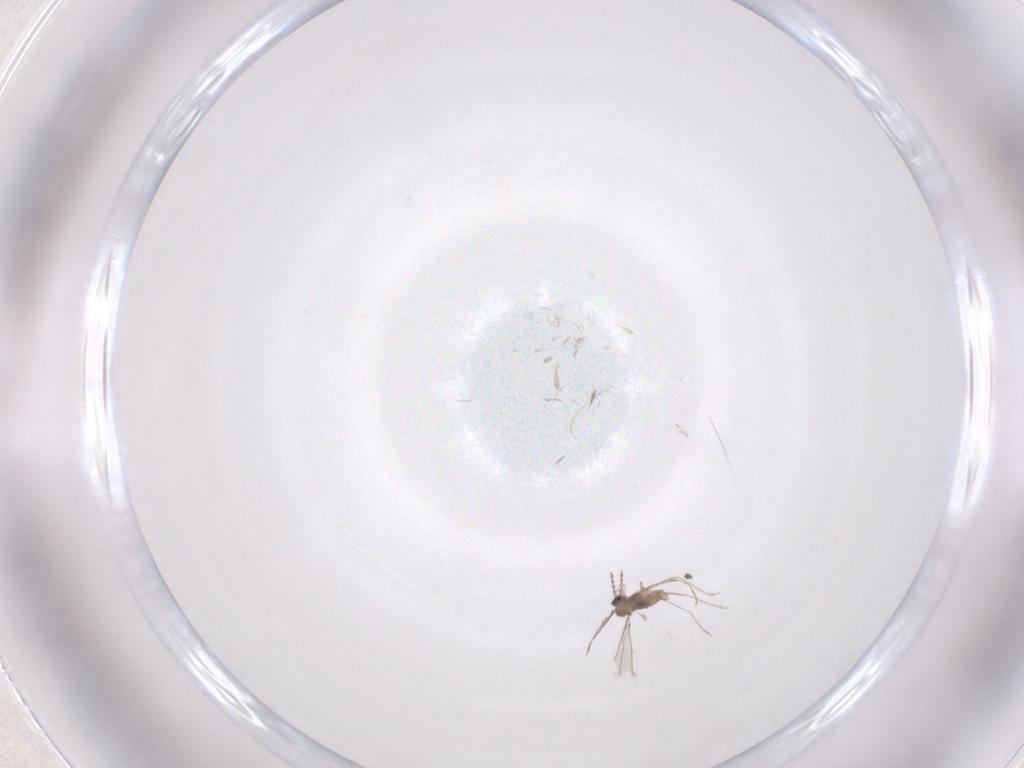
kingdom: Animalia
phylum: Arthropoda
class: Insecta
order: Diptera
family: Cecidomyiidae
